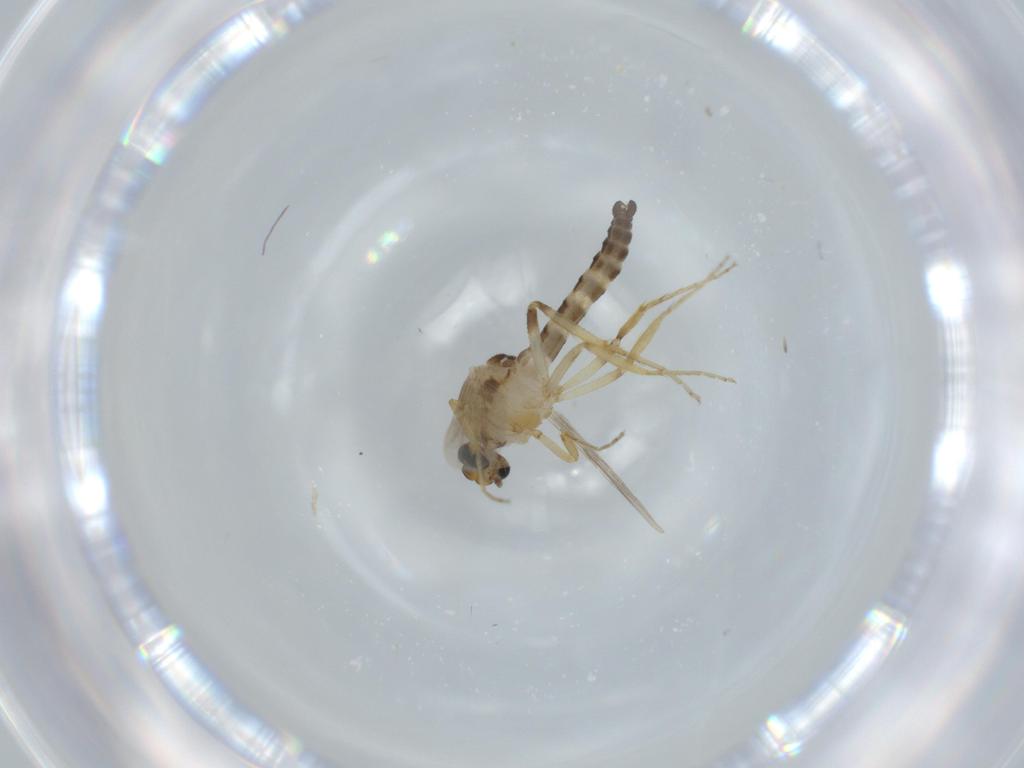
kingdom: Animalia
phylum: Arthropoda
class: Insecta
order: Diptera
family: Ceratopogonidae
